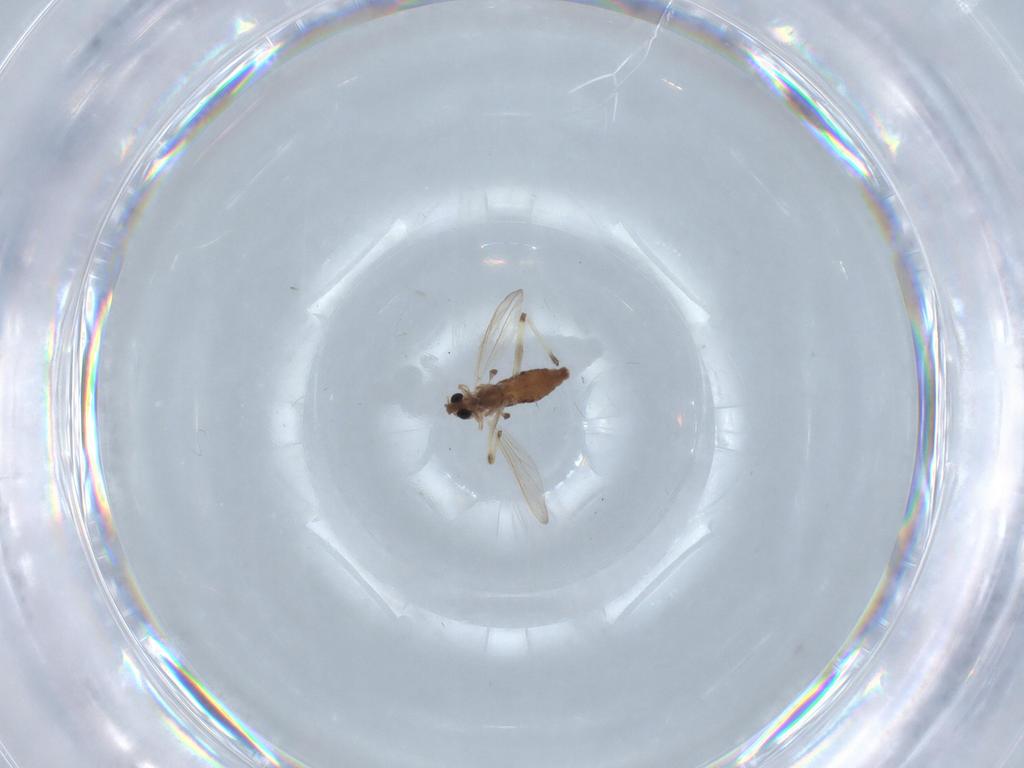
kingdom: Animalia
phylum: Arthropoda
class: Insecta
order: Diptera
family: Chironomidae
